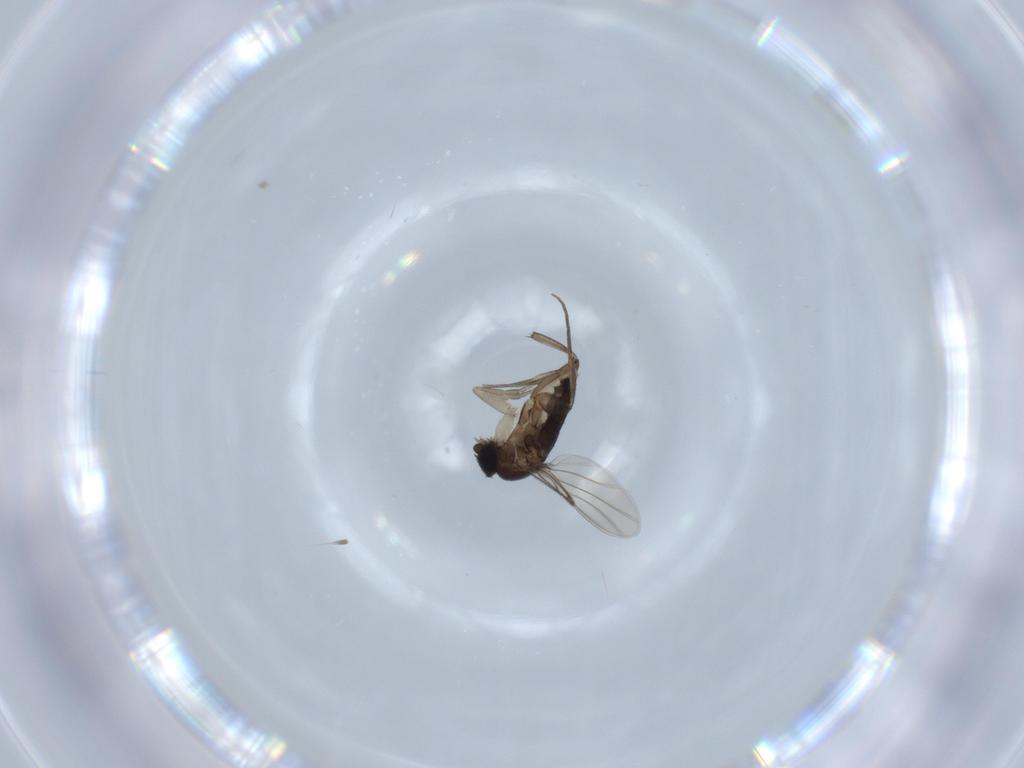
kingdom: Animalia
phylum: Arthropoda
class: Insecta
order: Diptera
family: Phoridae
